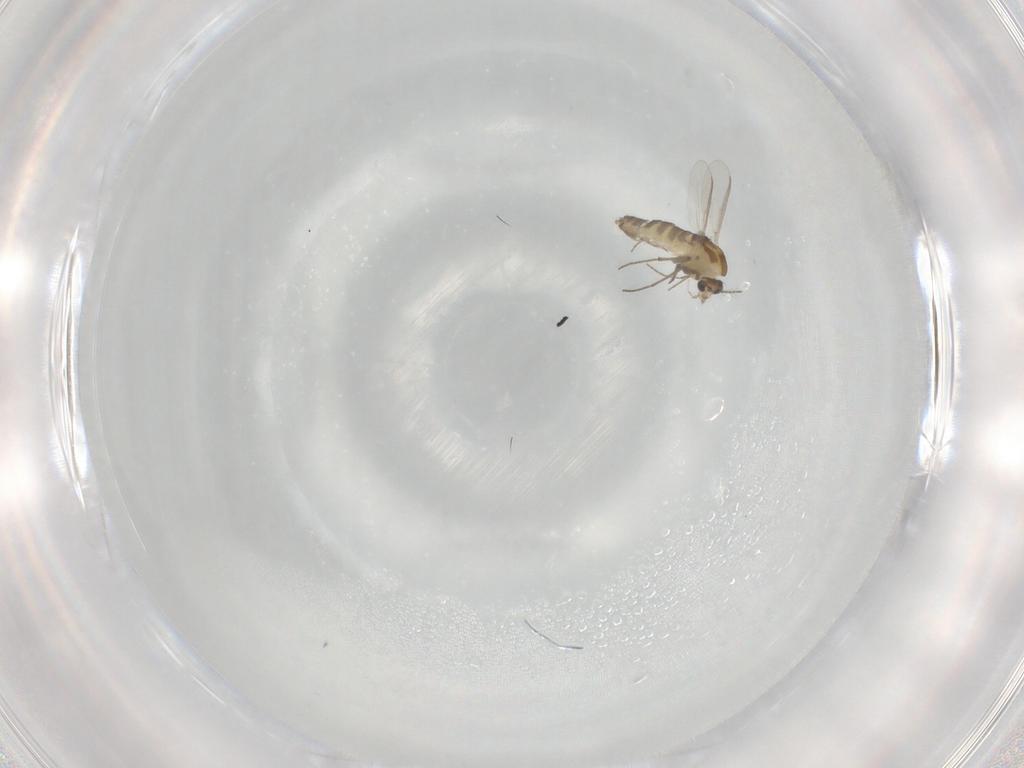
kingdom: Animalia
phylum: Arthropoda
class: Insecta
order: Diptera
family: Chironomidae
